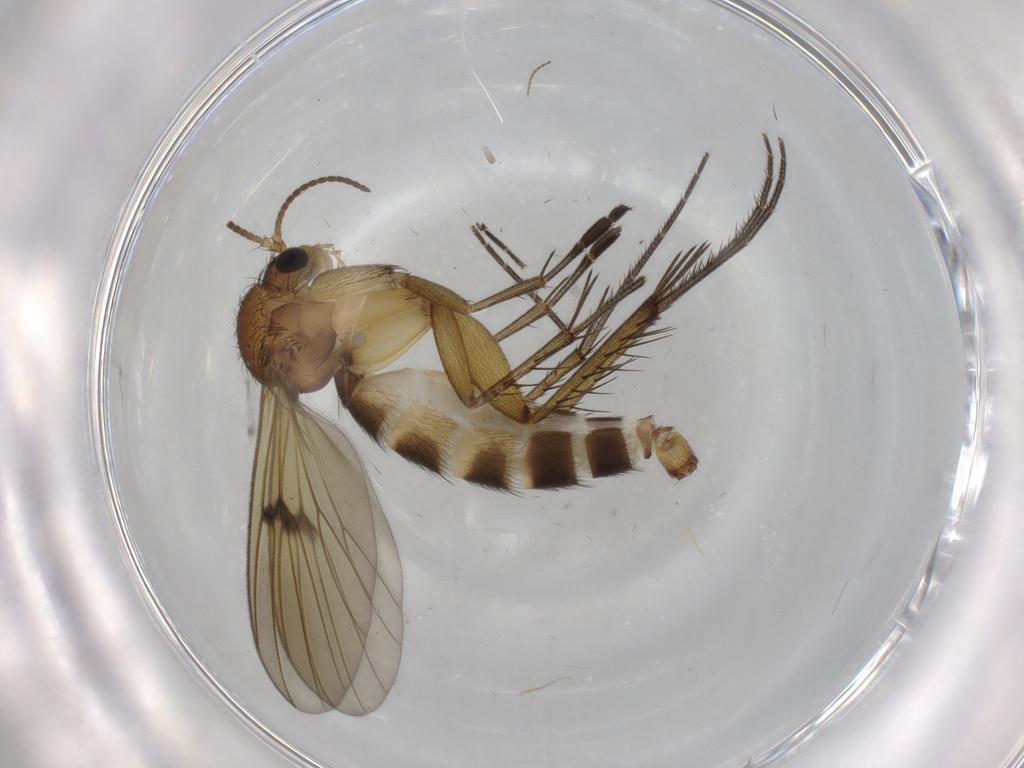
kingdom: Animalia
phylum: Arthropoda
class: Insecta
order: Diptera
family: Mycetophilidae
